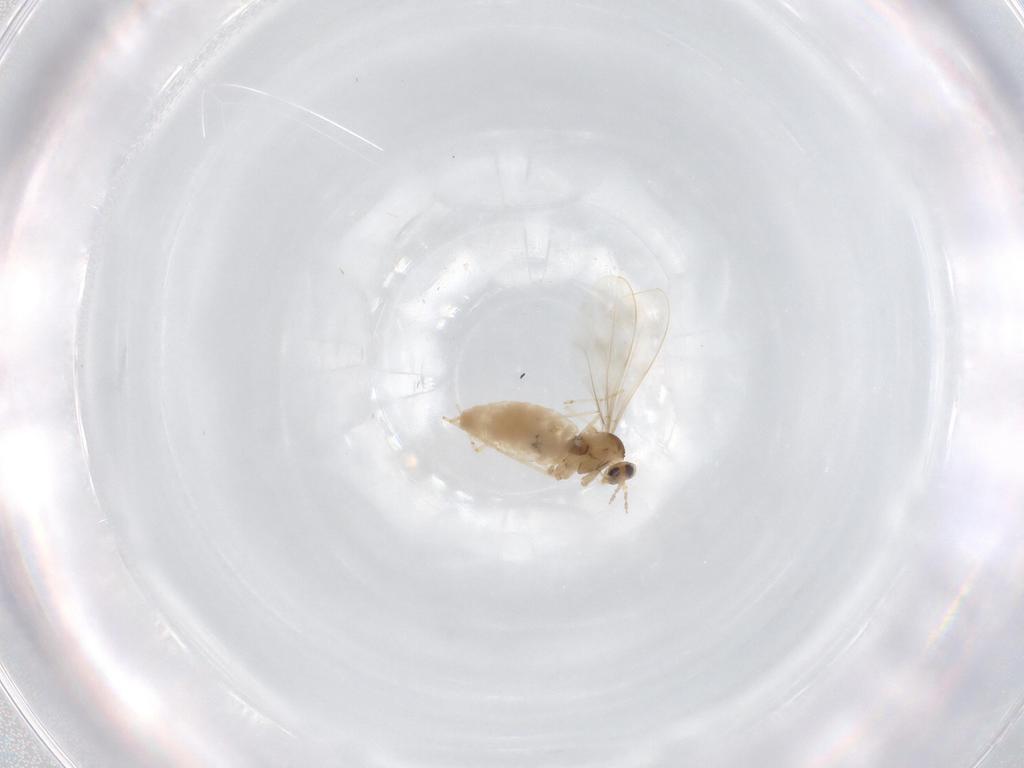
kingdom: Animalia
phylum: Arthropoda
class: Insecta
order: Diptera
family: Cecidomyiidae
